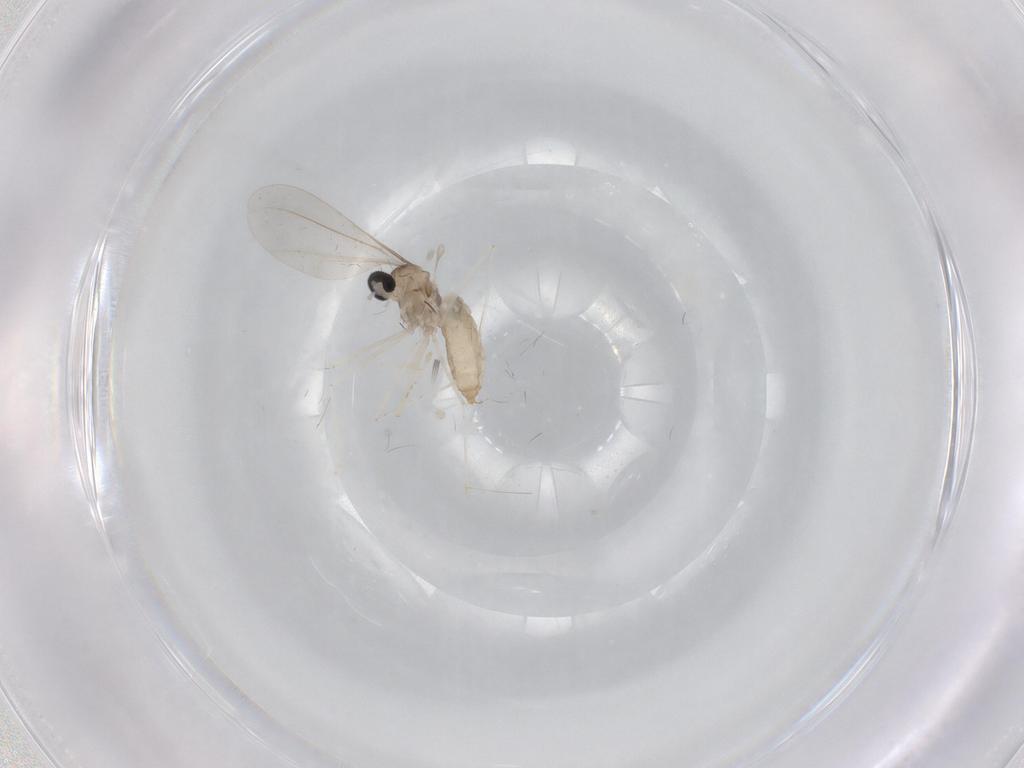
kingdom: Animalia
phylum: Arthropoda
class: Insecta
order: Diptera
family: Cecidomyiidae
